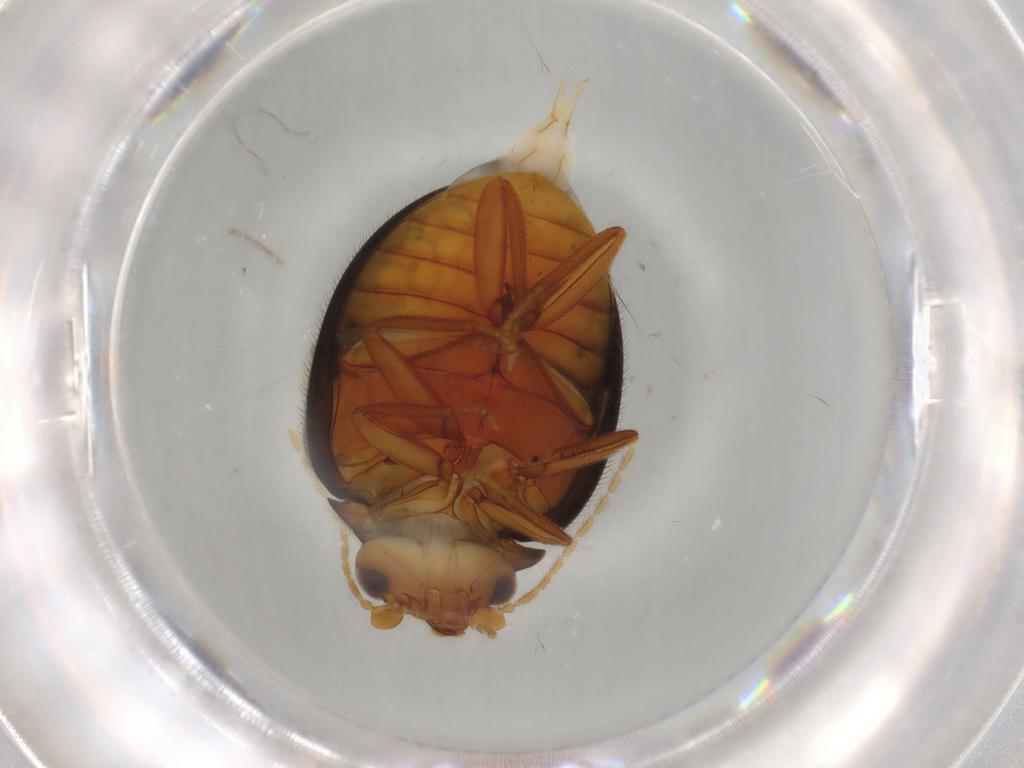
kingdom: Animalia
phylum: Arthropoda
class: Insecta
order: Coleoptera
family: Scirtidae
